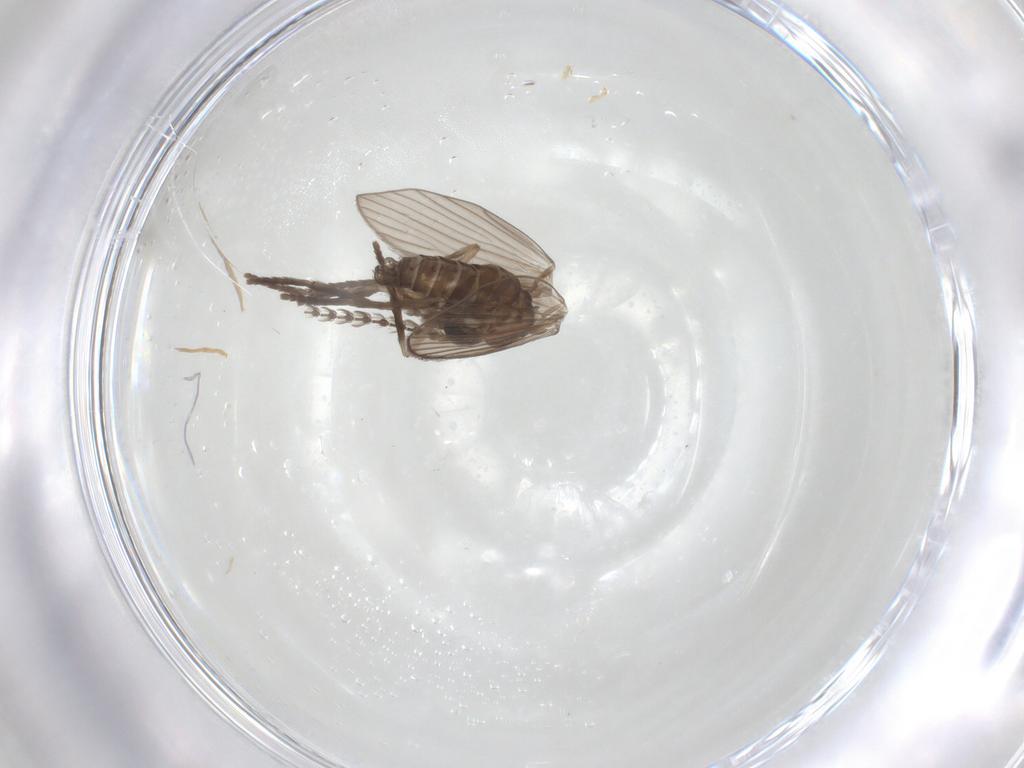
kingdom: Animalia
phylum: Arthropoda
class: Insecta
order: Diptera
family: Psychodidae
